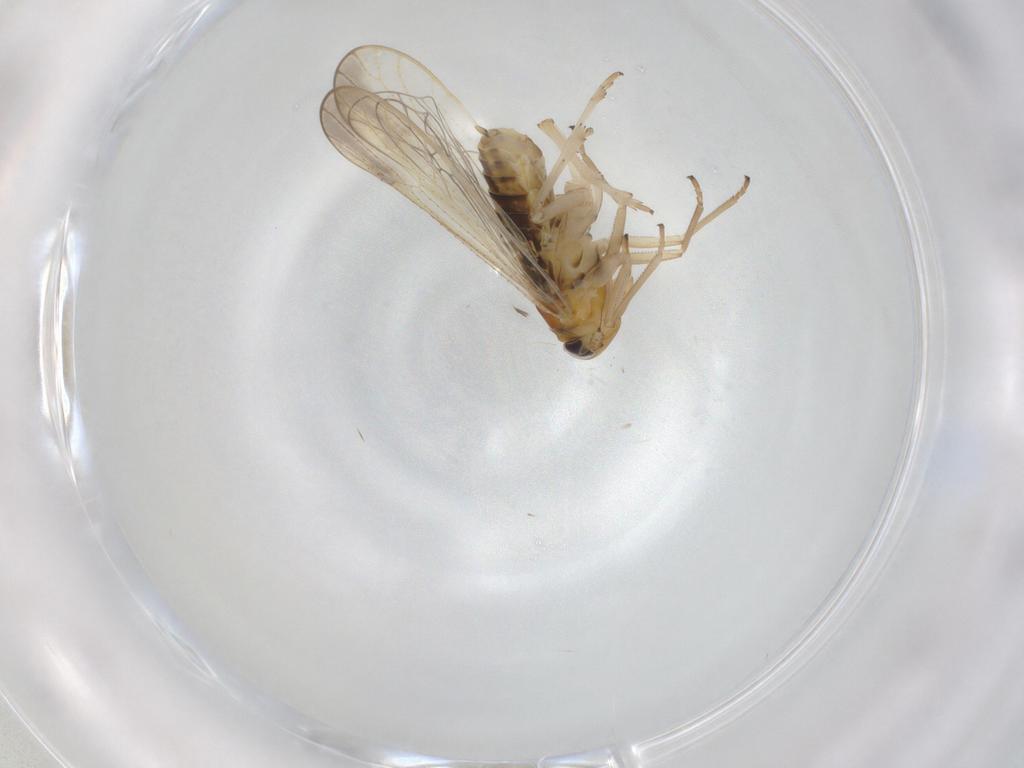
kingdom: Animalia
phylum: Arthropoda
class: Insecta
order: Hemiptera
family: Delphacidae
